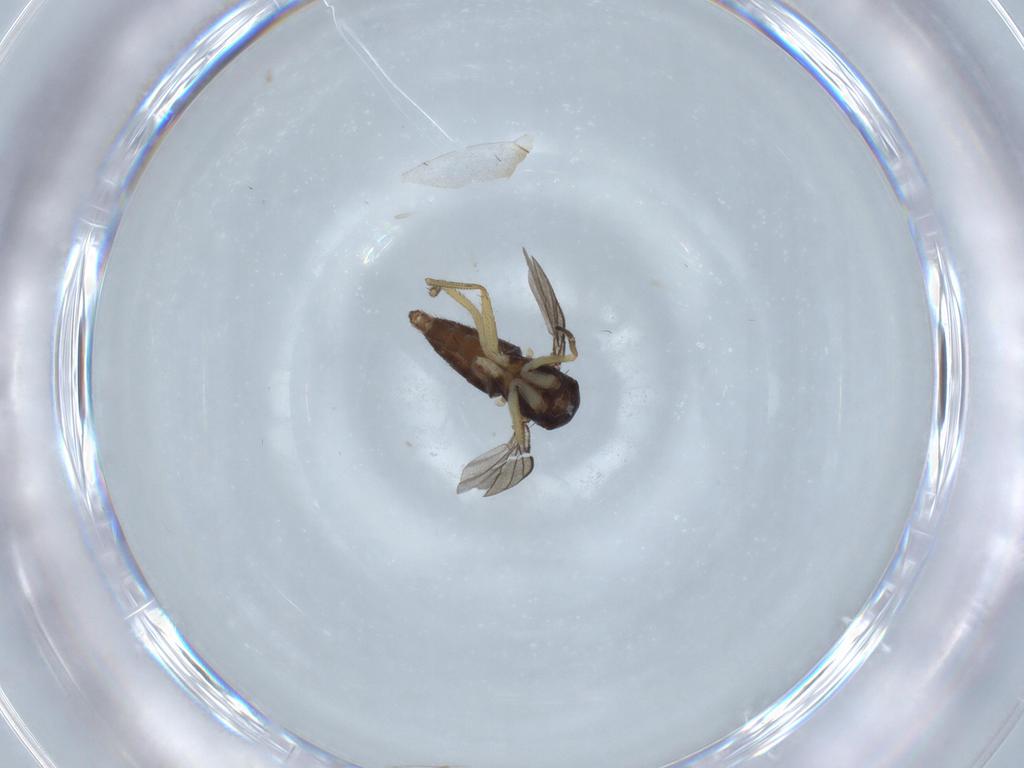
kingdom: Animalia
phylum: Arthropoda
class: Insecta
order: Diptera
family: Dolichopodidae
